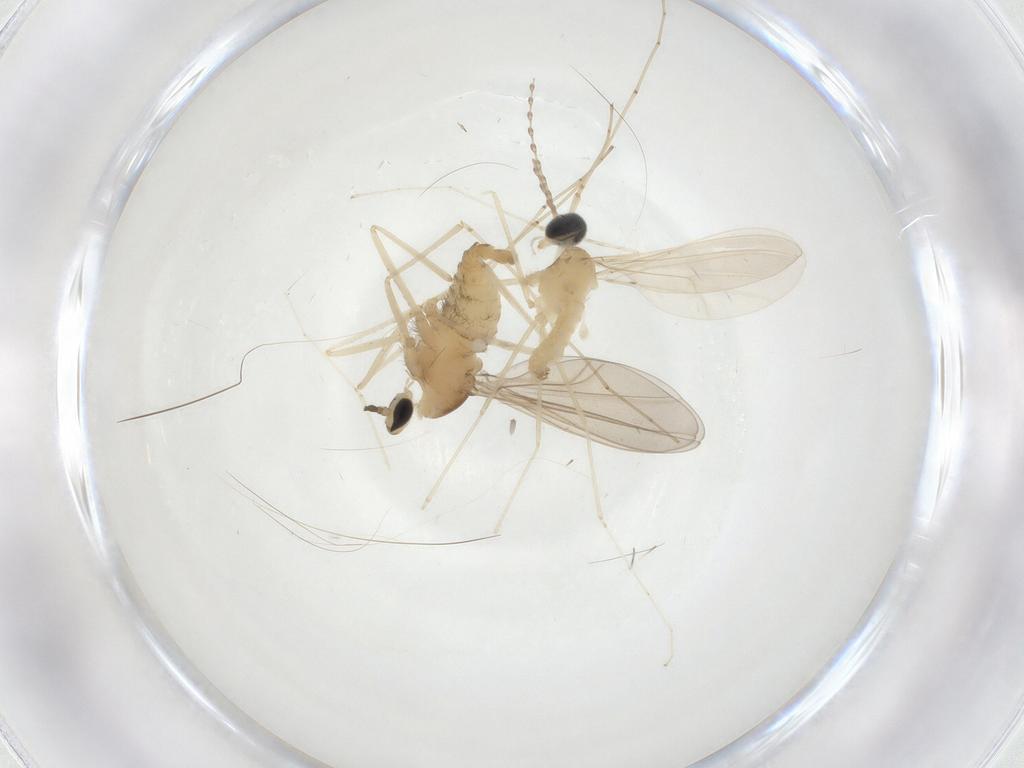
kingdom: Animalia
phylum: Arthropoda
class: Insecta
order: Diptera
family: Cecidomyiidae
